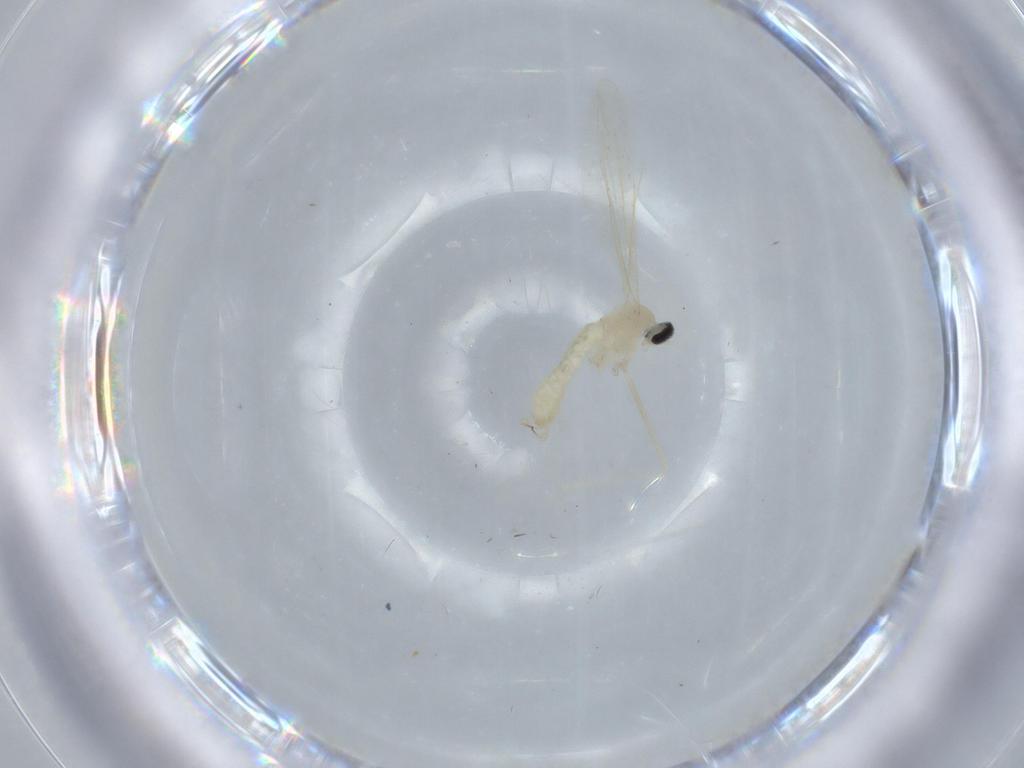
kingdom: Animalia
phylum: Arthropoda
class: Insecta
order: Diptera
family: Cecidomyiidae
